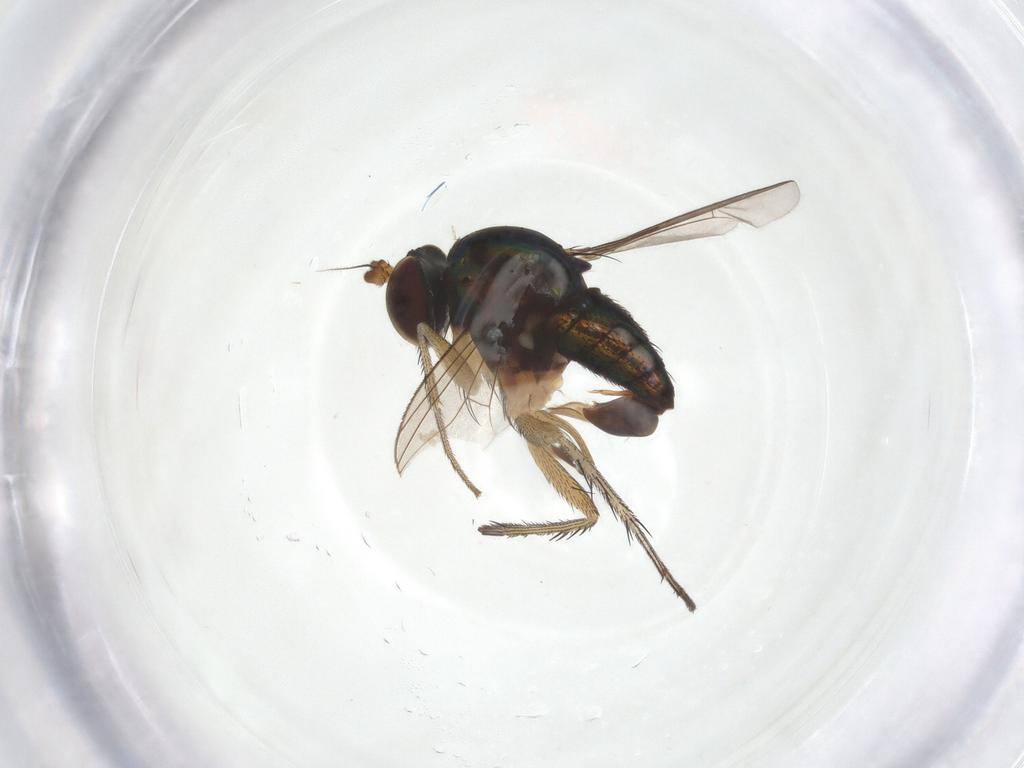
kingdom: Animalia
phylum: Arthropoda
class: Insecta
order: Diptera
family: Dolichopodidae
